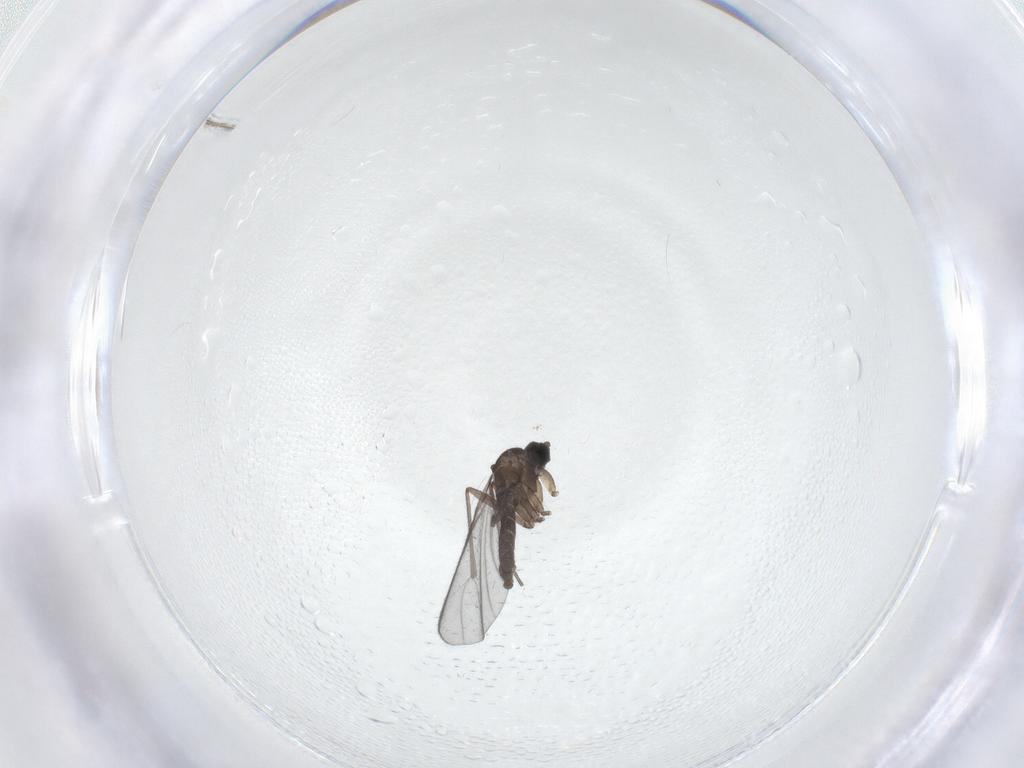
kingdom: Animalia
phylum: Arthropoda
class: Insecta
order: Diptera
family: Sciaridae
